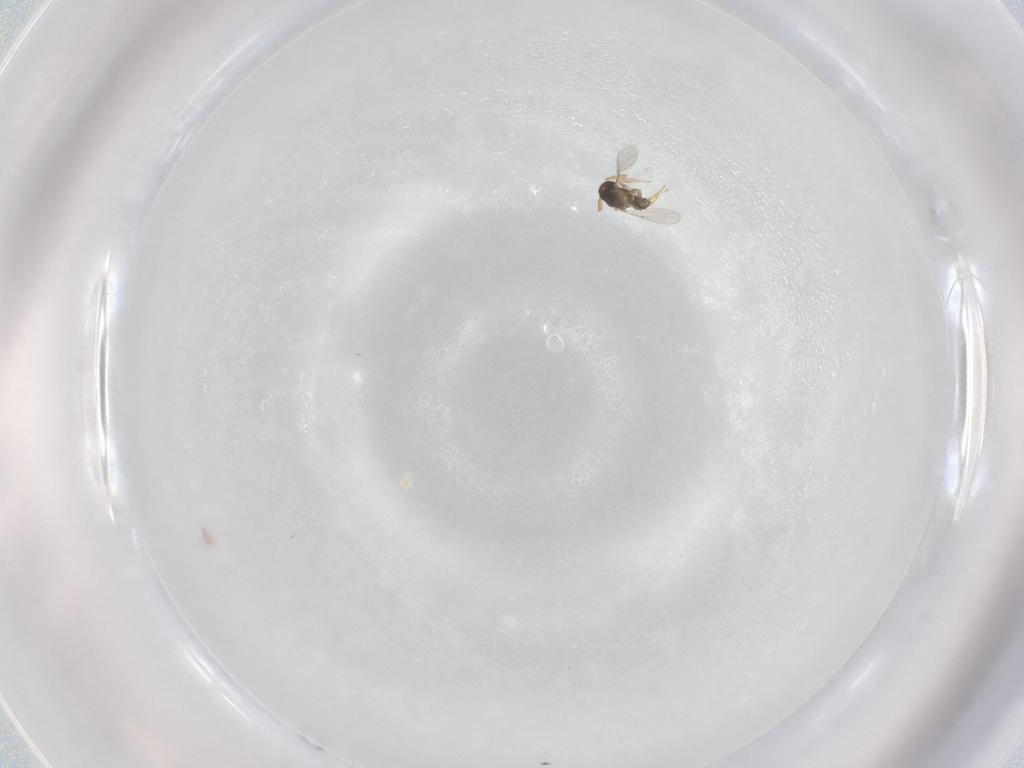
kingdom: Animalia
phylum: Arthropoda
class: Insecta
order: Hymenoptera
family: Encyrtidae
